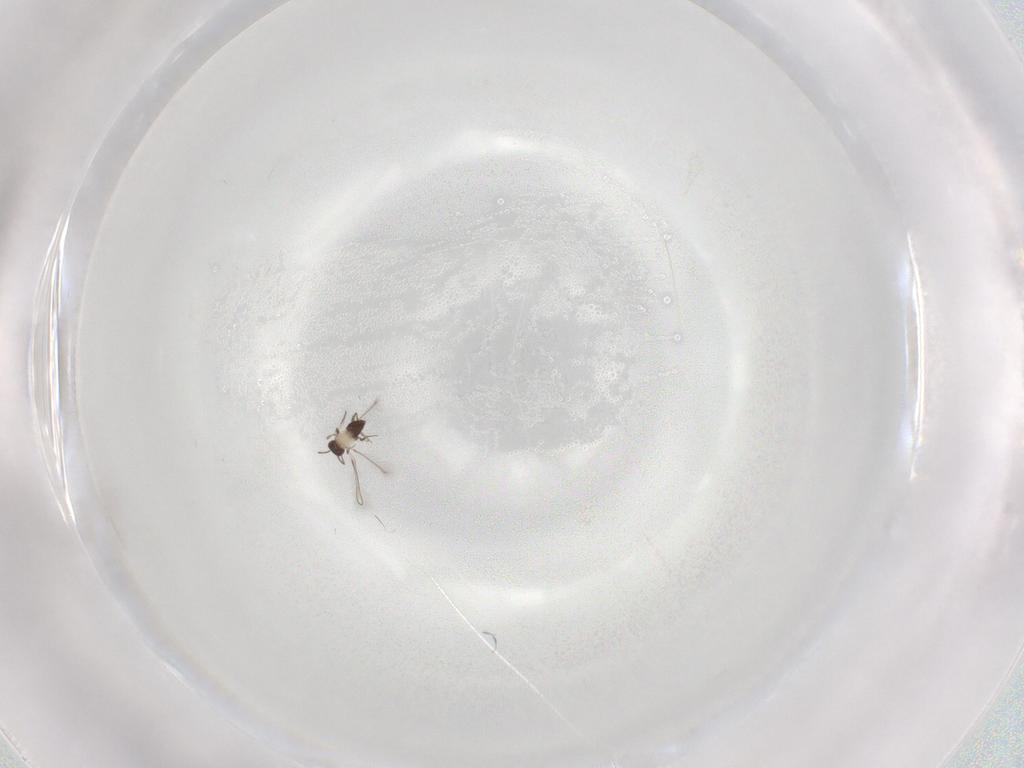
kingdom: Animalia
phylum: Arthropoda
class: Insecta
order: Hymenoptera
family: Mymaridae
